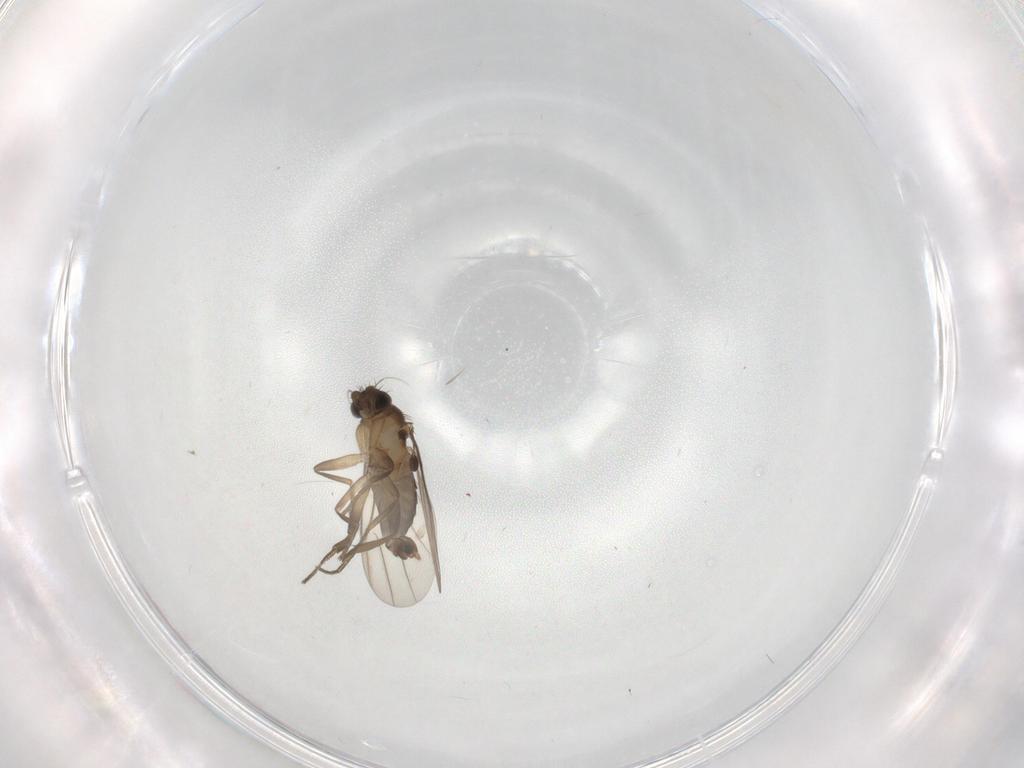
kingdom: Animalia
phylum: Arthropoda
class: Insecta
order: Diptera
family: Phoridae
